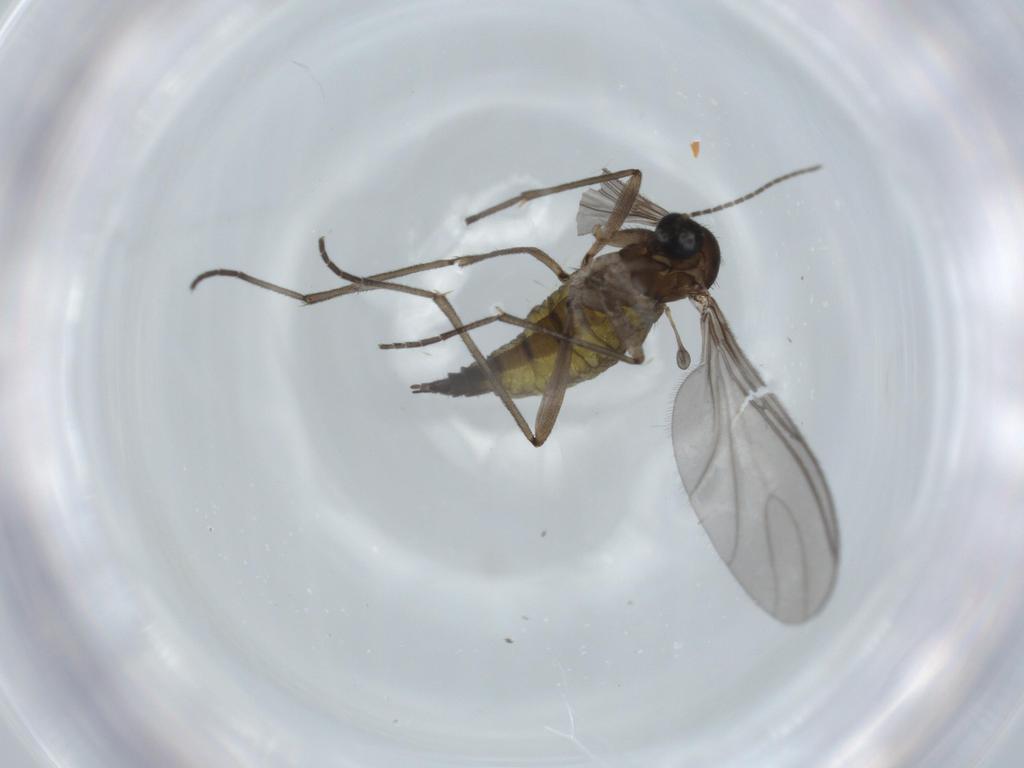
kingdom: Animalia
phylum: Arthropoda
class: Insecta
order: Diptera
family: Sciaridae
